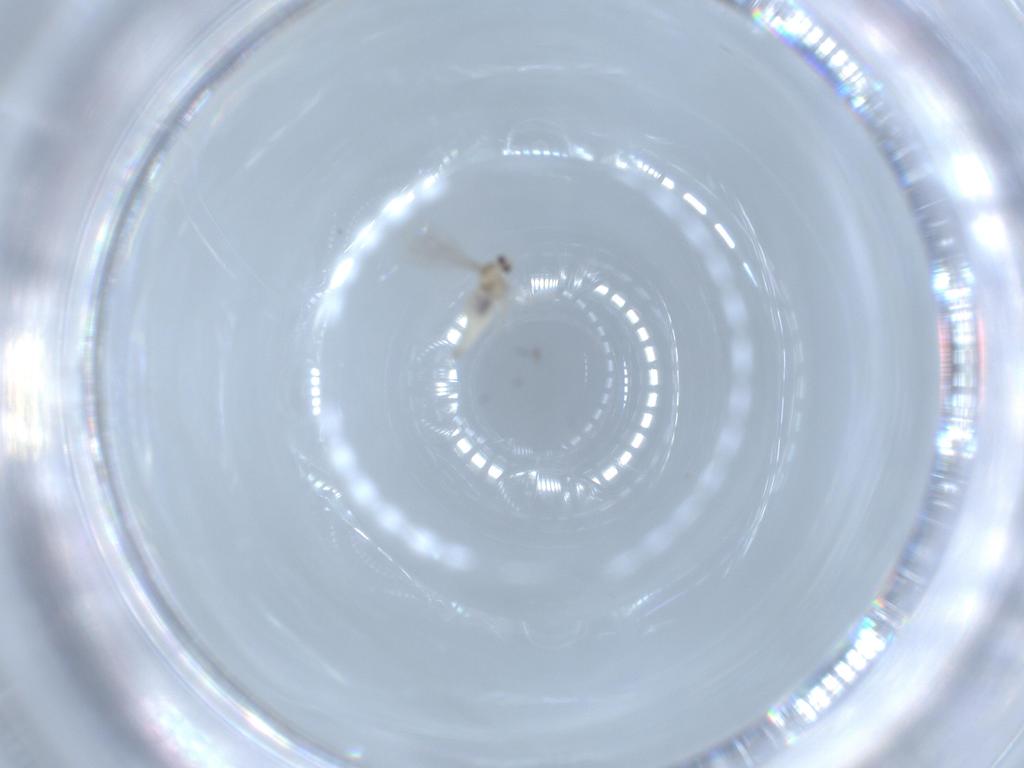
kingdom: Animalia
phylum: Arthropoda
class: Insecta
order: Diptera
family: Cecidomyiidae
